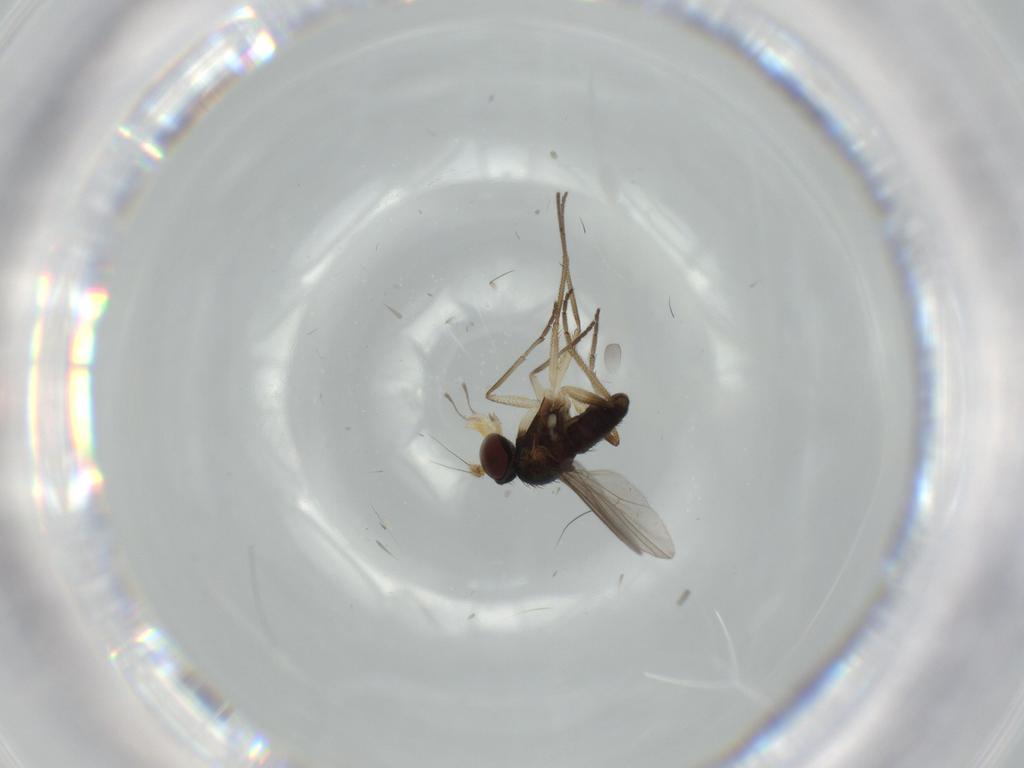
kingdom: Animalia
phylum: Arthropoda
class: Insecta
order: Diptera
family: Dolichopodidae
